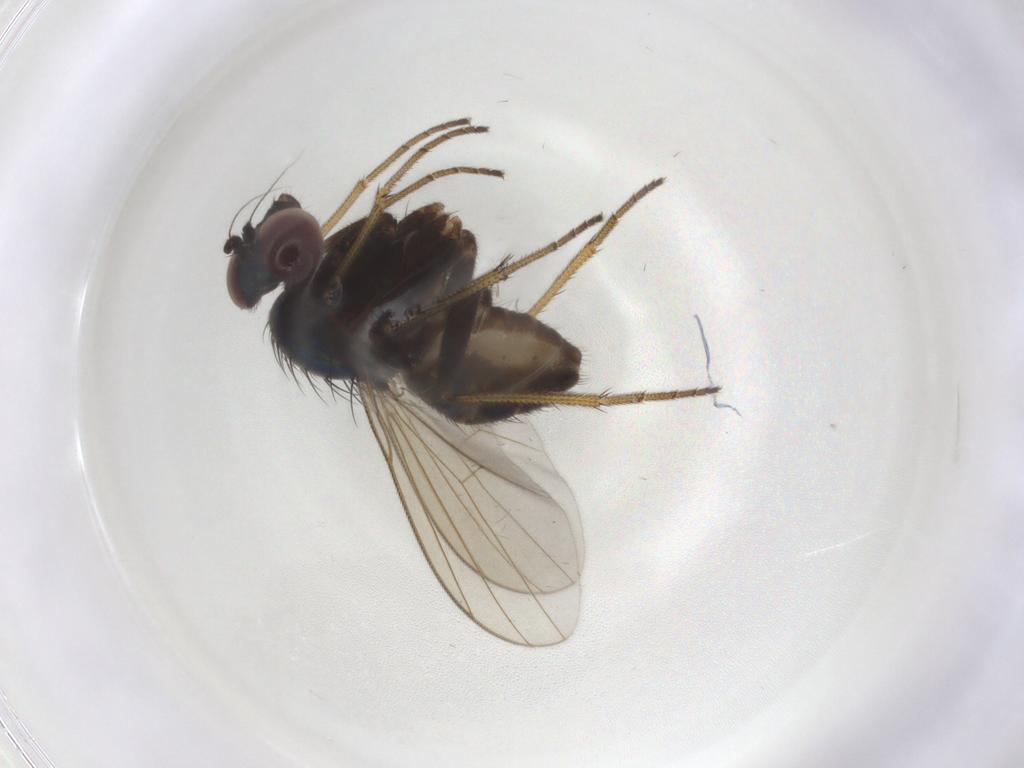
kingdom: Animalia
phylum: Arthropoda
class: Insecta
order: Diptera
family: Dolichopodidae
